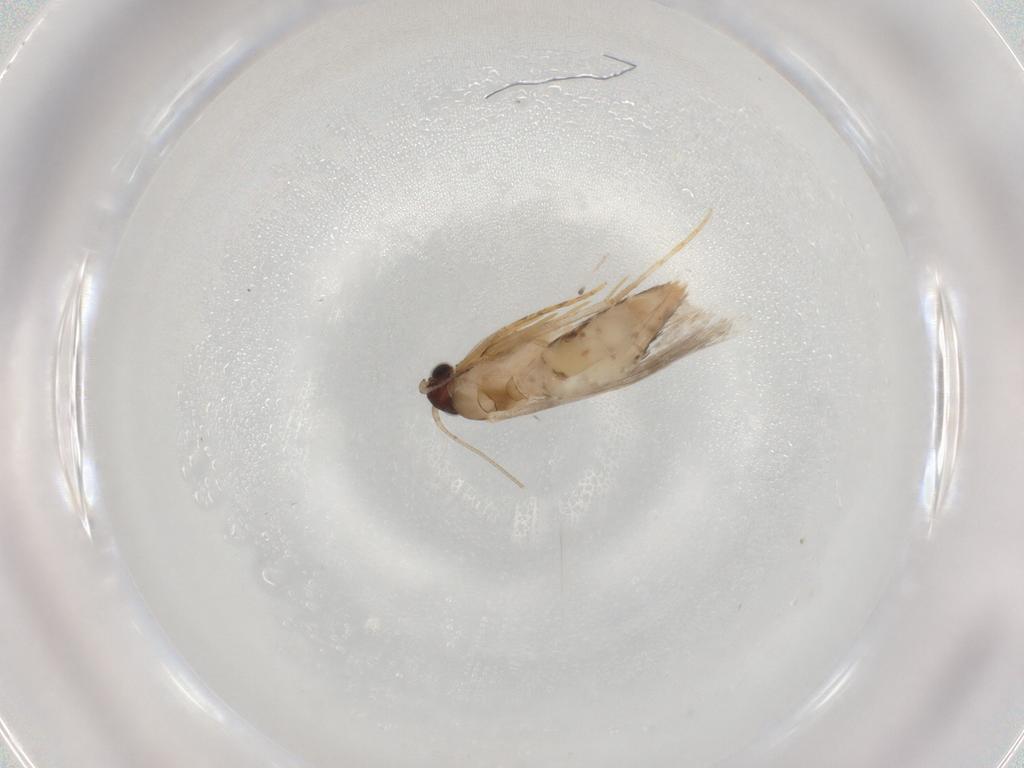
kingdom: Animalia
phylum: Arthropoda
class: Insecta
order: Lepidoptera
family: Tineidae
